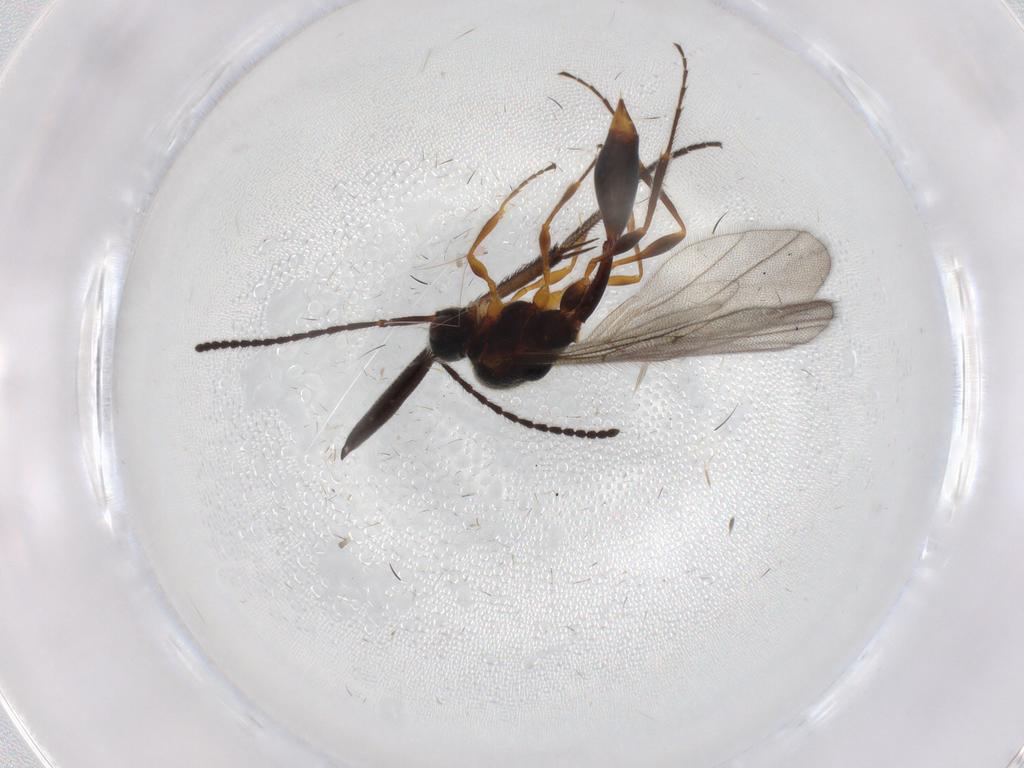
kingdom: Animalia
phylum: Arthropoda
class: Insecta
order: Hymenoptera
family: Diapriidae
